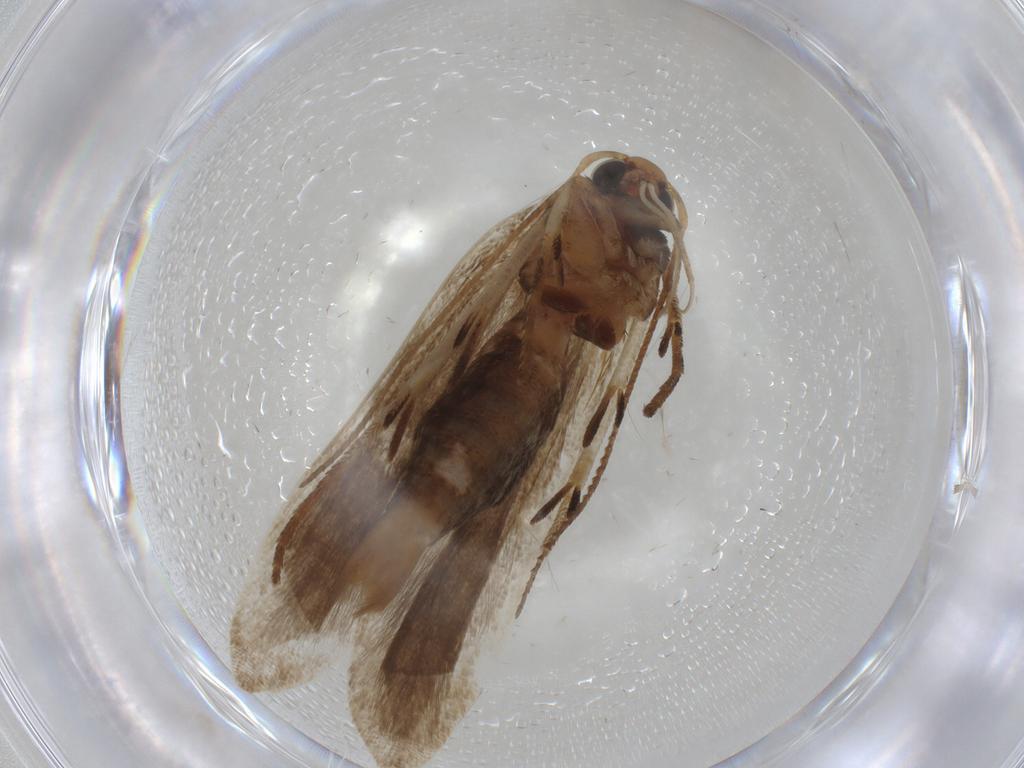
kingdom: Animalia
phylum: Arthropoda
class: Insecta
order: Lepidoptera
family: Gelechiidae
